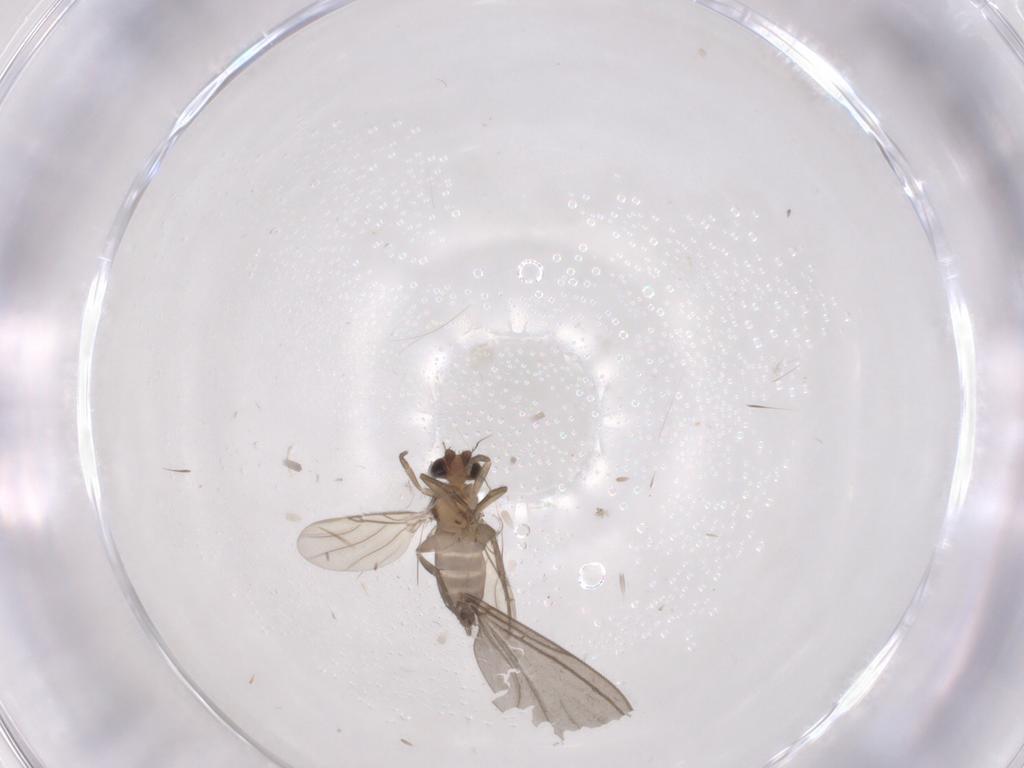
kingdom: Animalia
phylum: Arthropoda
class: Insecta
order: Diptera
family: Phoridae
